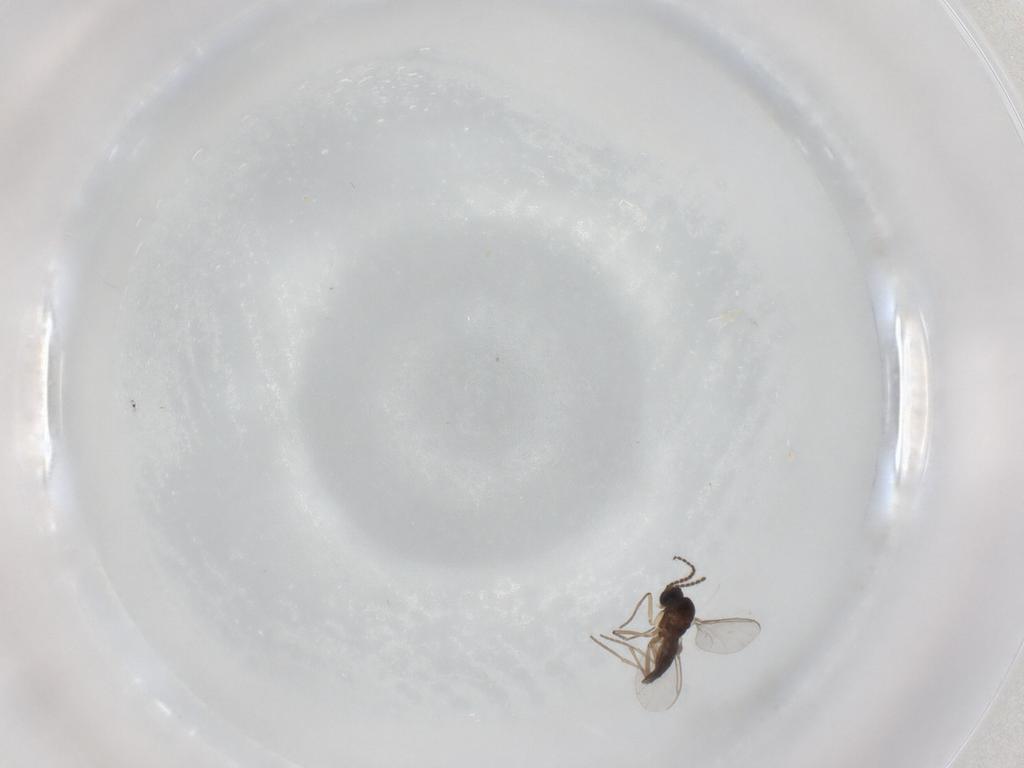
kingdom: Animalia
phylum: Arthropoda
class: Insecta
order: Diptera
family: Sciaridae
